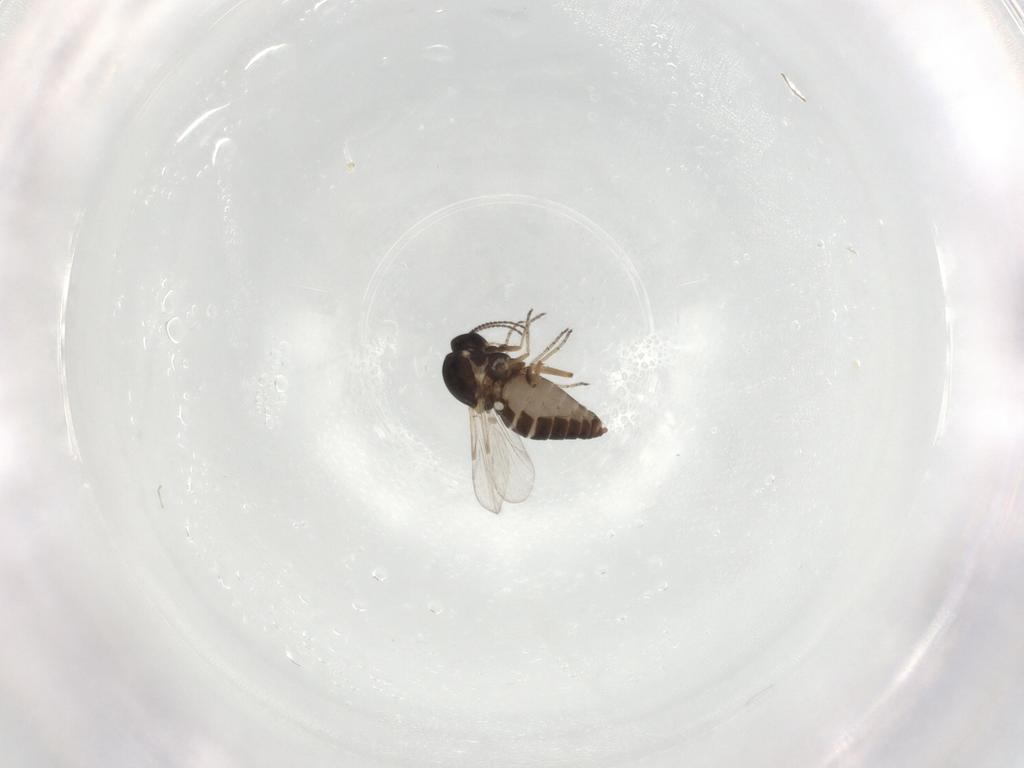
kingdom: Animalia
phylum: Arthropoda
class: Insecta
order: Diptera
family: Ceratopogonidae
